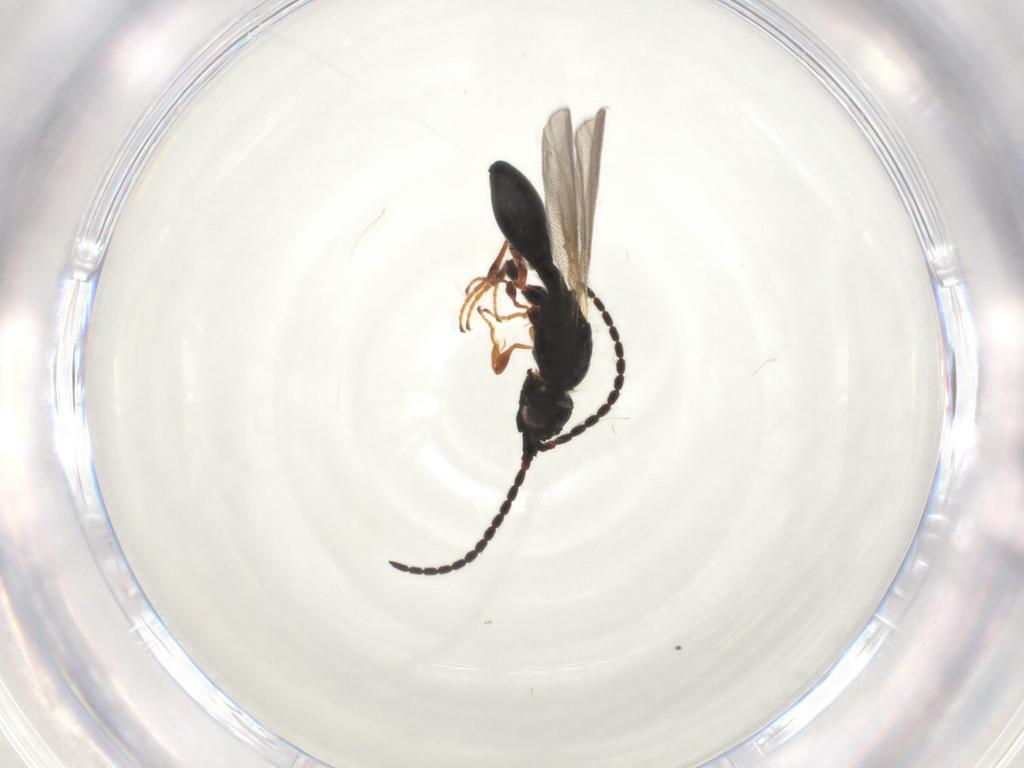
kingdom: Animalia
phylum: Arthropoda
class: Insecta
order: Hymenoptera
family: Diapriidae
